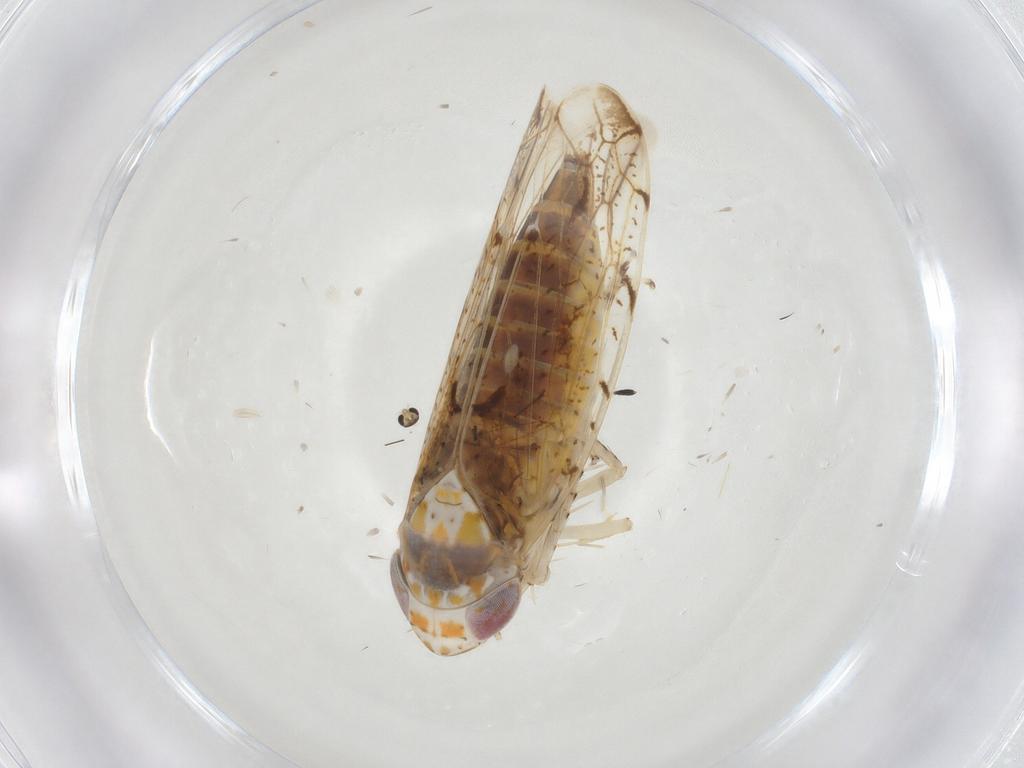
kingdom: Animalia
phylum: Arthropoda
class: Insecta
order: Hemiptera
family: Cicadellidae
